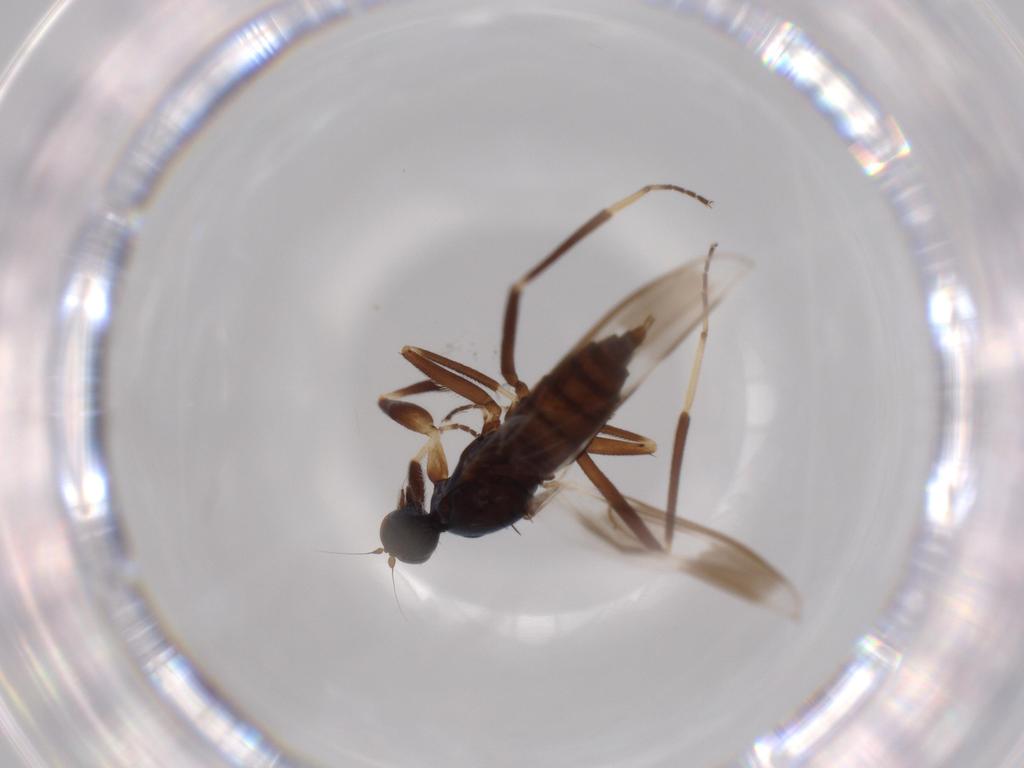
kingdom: Animalia
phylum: Arthropoda
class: Insecta
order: Diptera
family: Hybotidae
